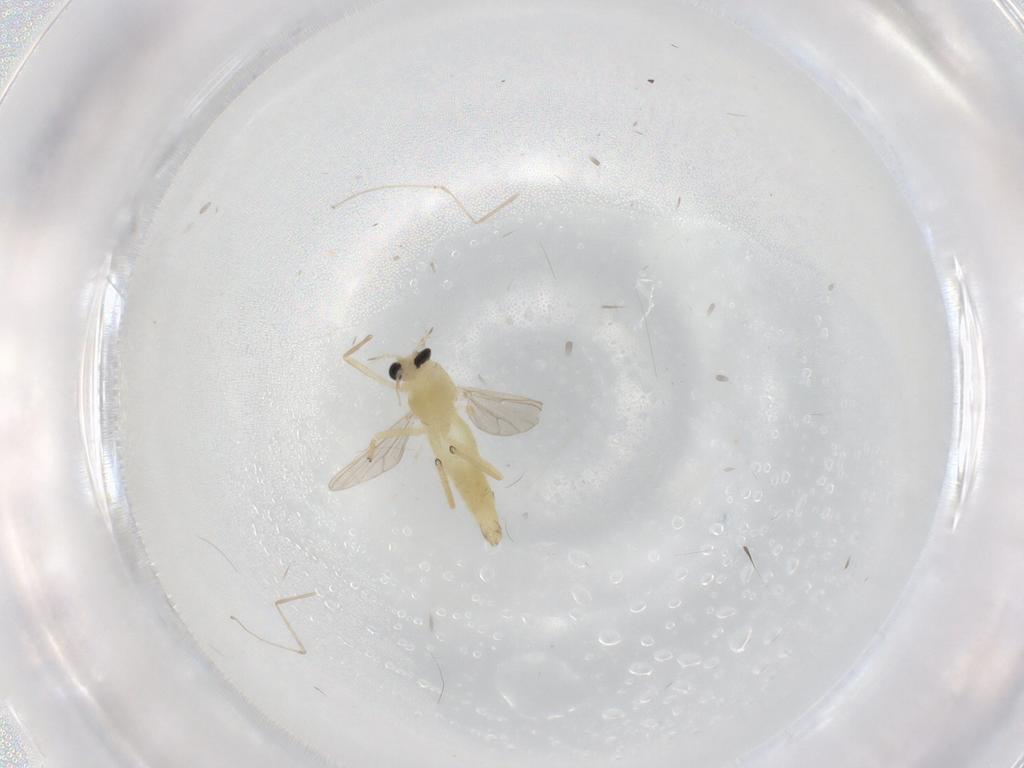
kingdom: Animalia
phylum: Arthropoda
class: Insecta
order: Diptera
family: Chironomidae
